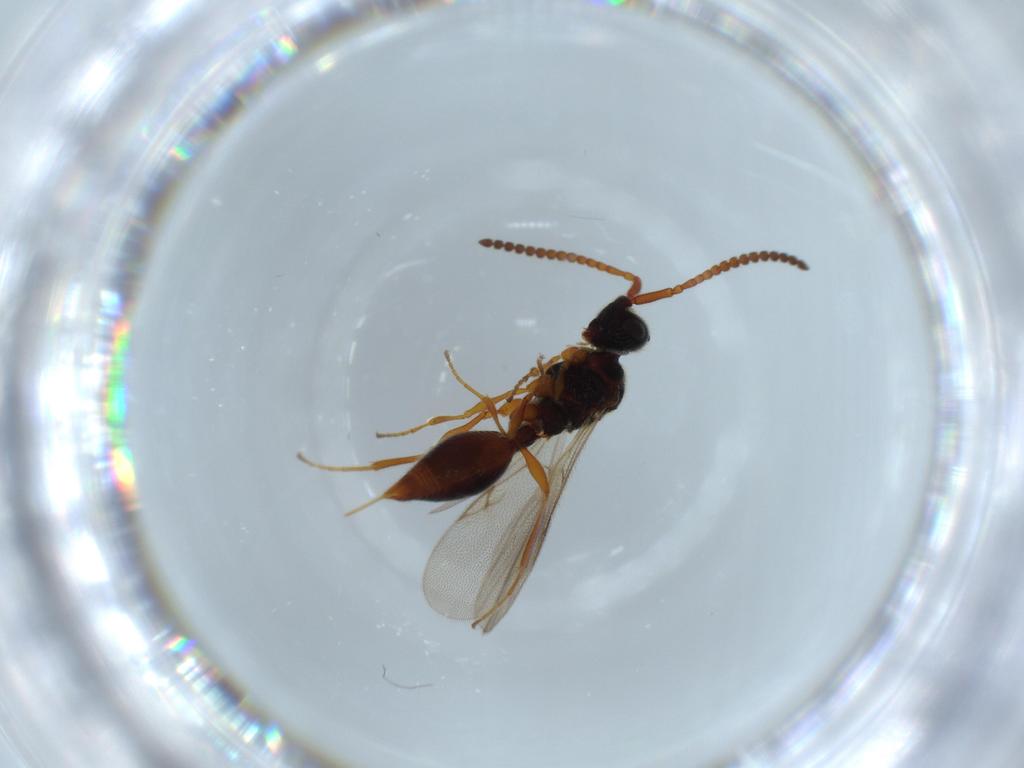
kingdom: Animalia
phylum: Arthropoda
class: Insecta
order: Hymenoptera
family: Diapriidae
